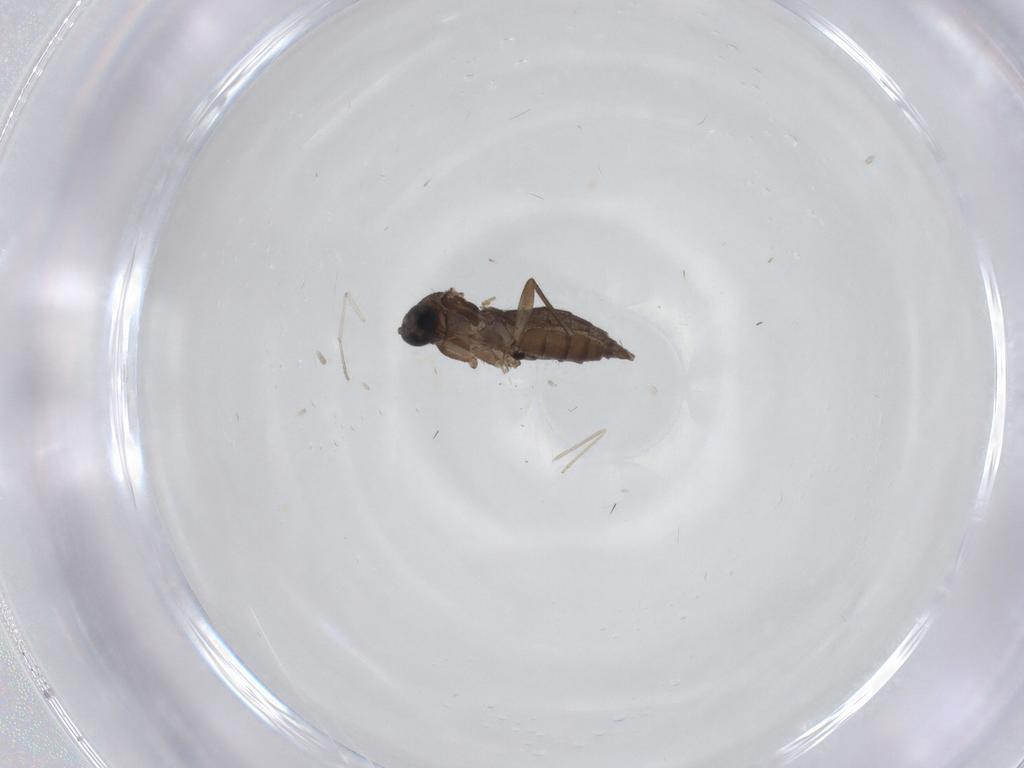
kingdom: Animalia
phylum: Arthropoda
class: Insecta
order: Diptera
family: Sciaridae
